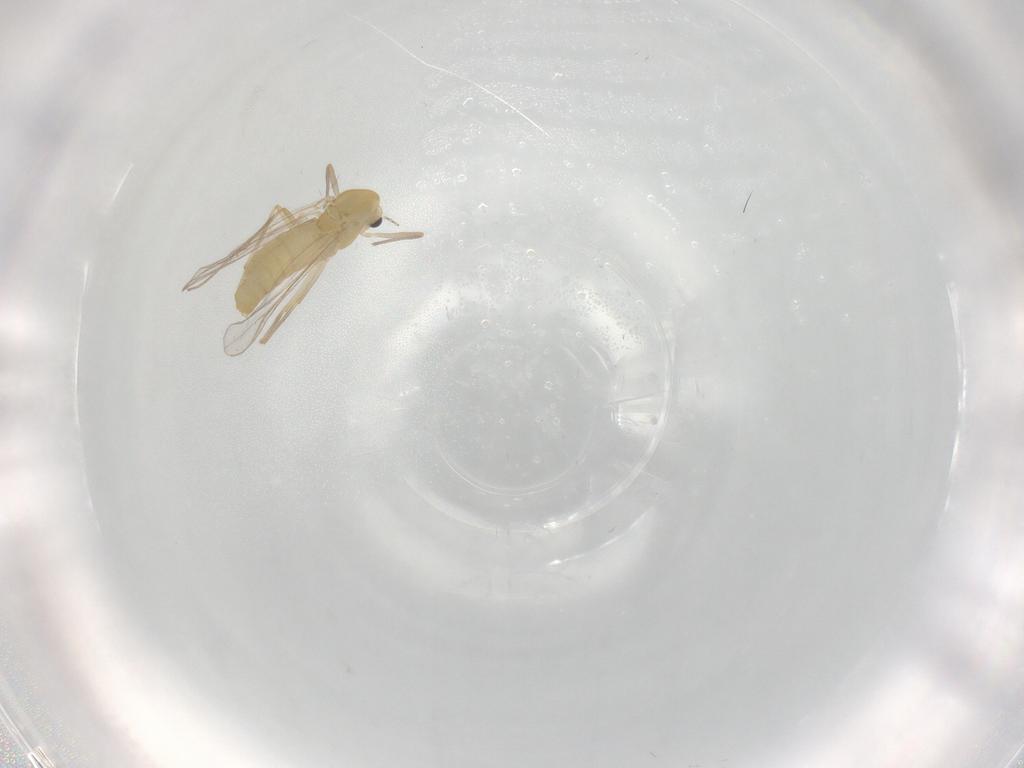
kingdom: Animalia
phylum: Arthropoda
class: Insecta
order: Diptera
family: Chironomidae
